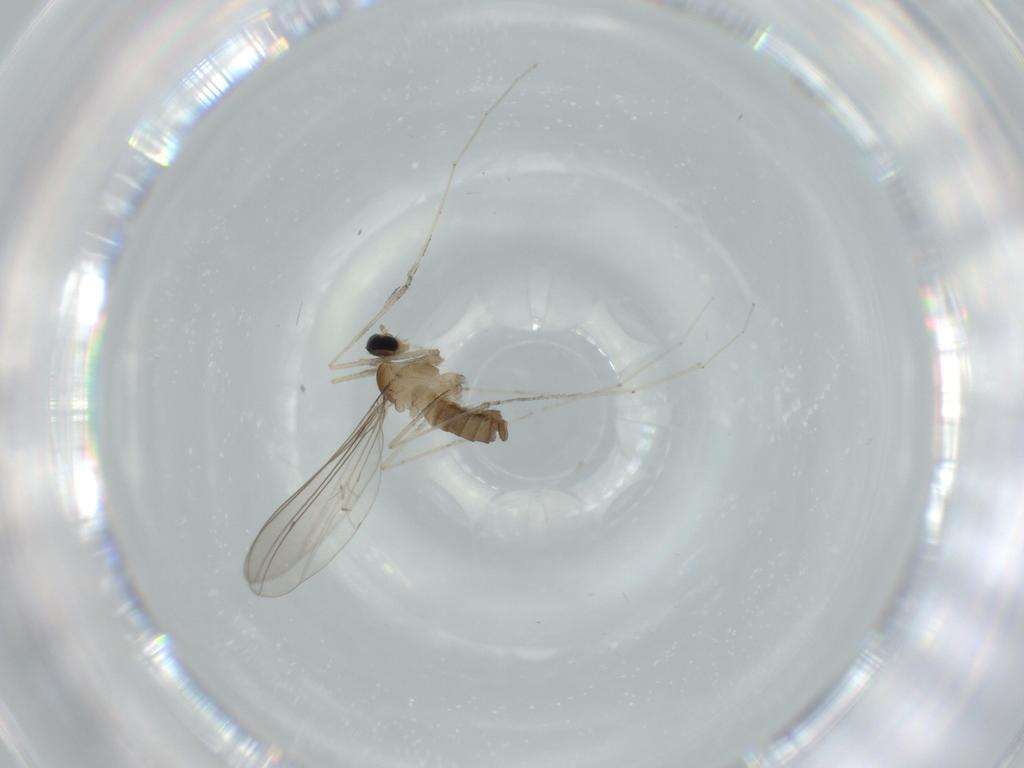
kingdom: Animalia
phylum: Arthropoda
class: Insecta
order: Diptera
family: Cecidomyiidae
